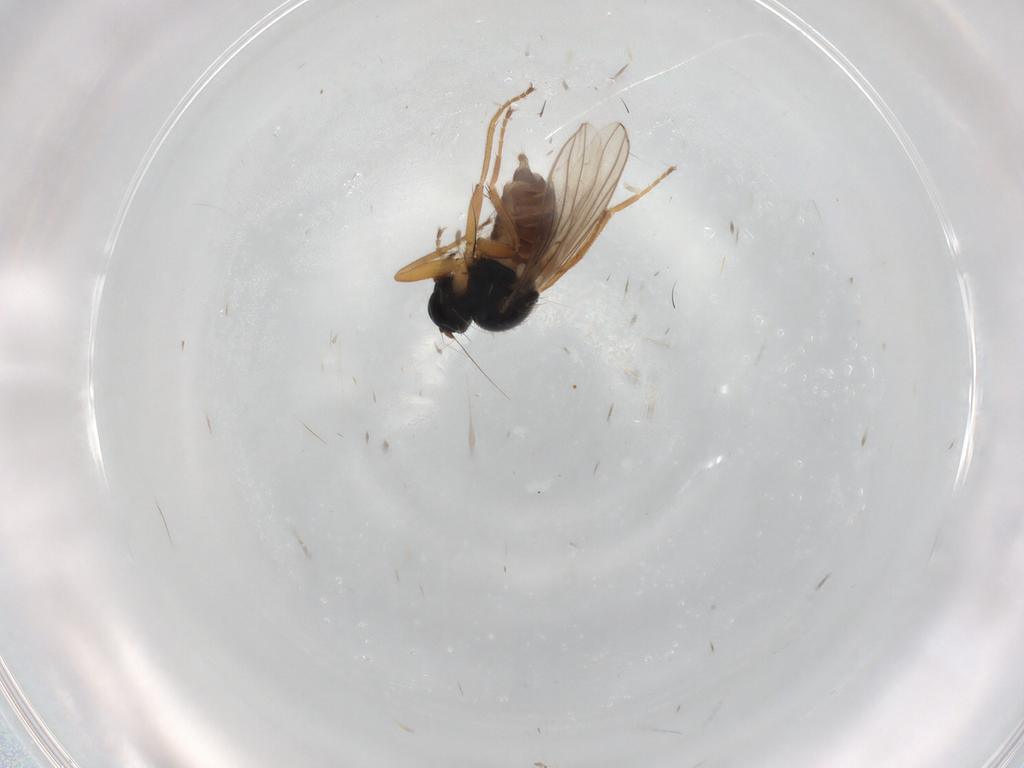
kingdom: Animalia
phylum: Arthropoda
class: Insecta
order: Diptera
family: Hybotidae
